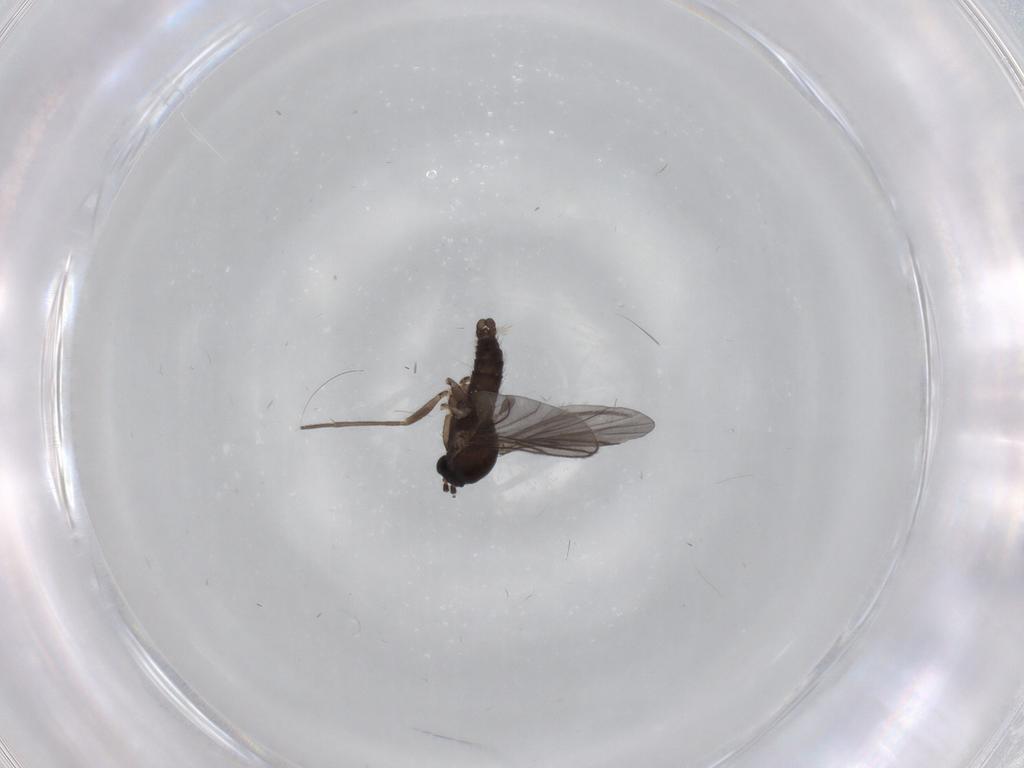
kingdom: Animalia
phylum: Arthropoda
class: Insecta
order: Diptera
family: Sciaridae
